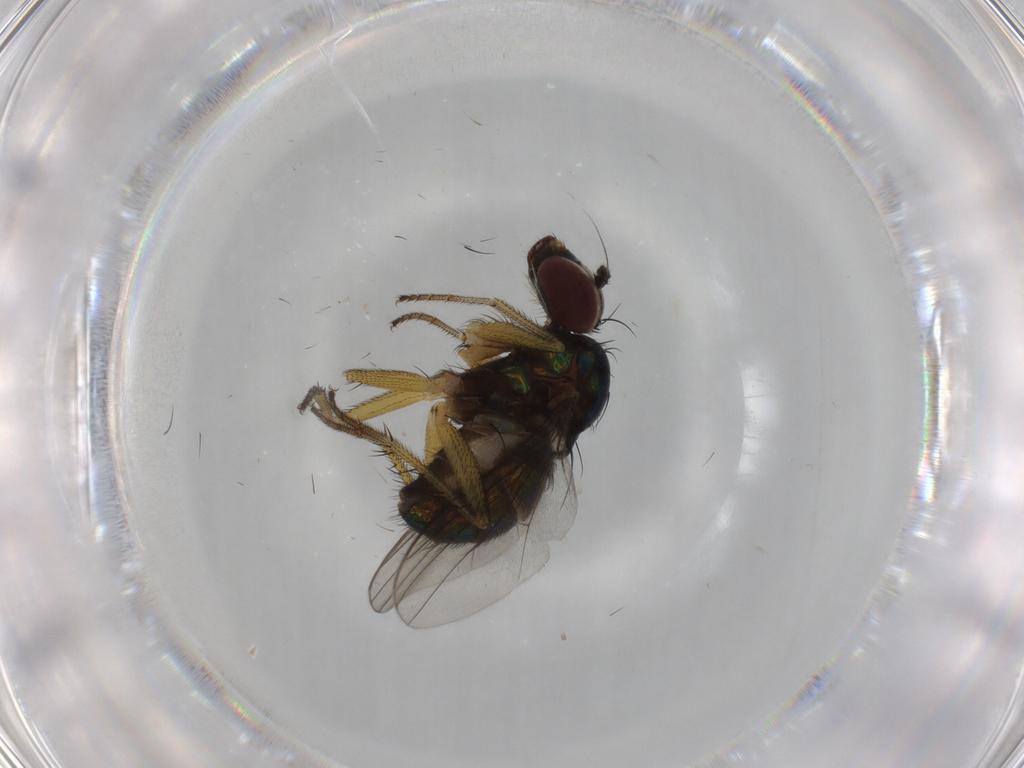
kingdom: Animalia
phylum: Arthropoda
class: Insecta
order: Diptera
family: Dolichopodidae
